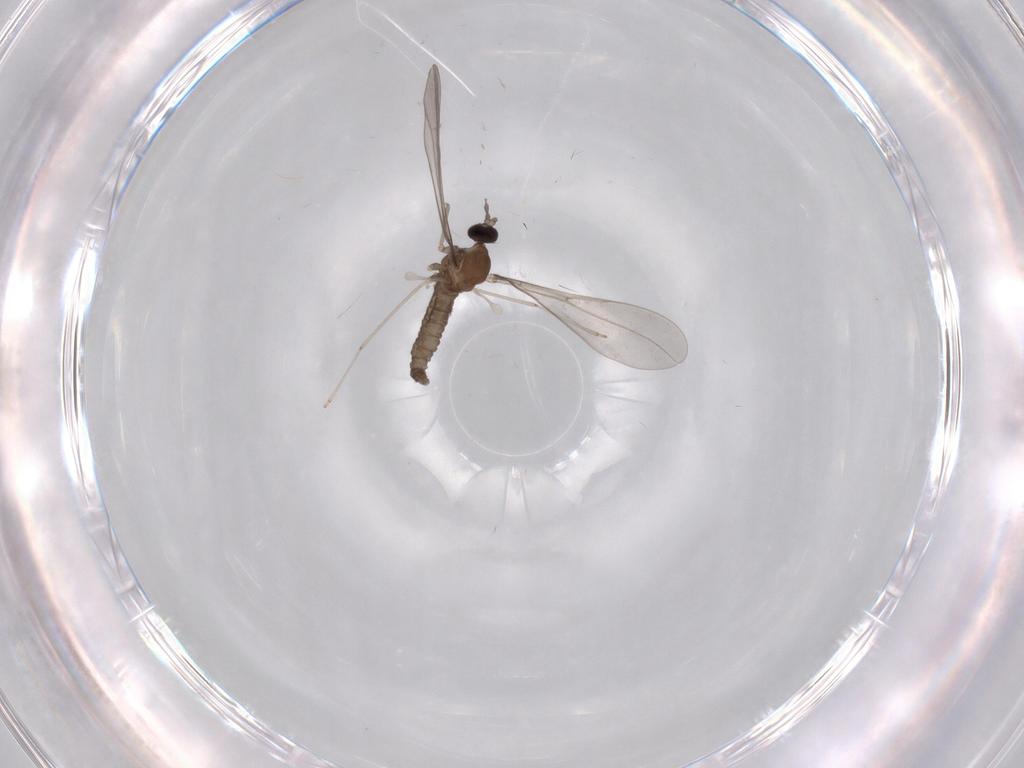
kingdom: Animalia
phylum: Arthropoda
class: Insecta
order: Diptera
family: Cecidomyiidae
